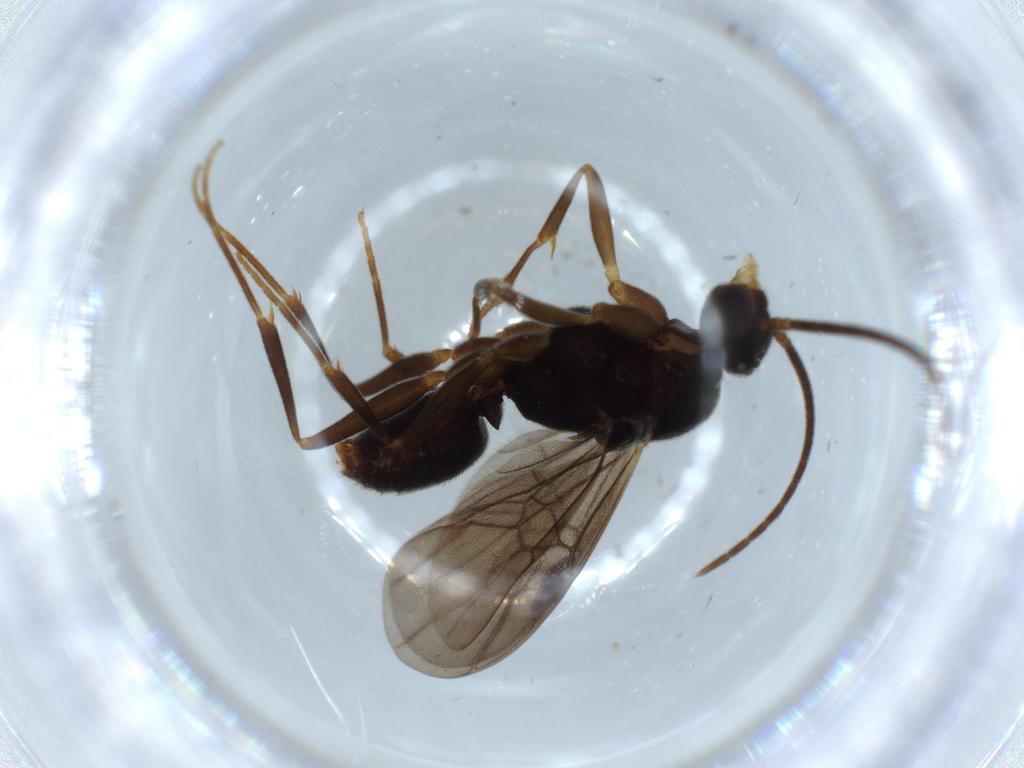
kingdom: Animalia
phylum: Arthropoda
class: Insecta
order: Hymenoptera
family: Formicidae
